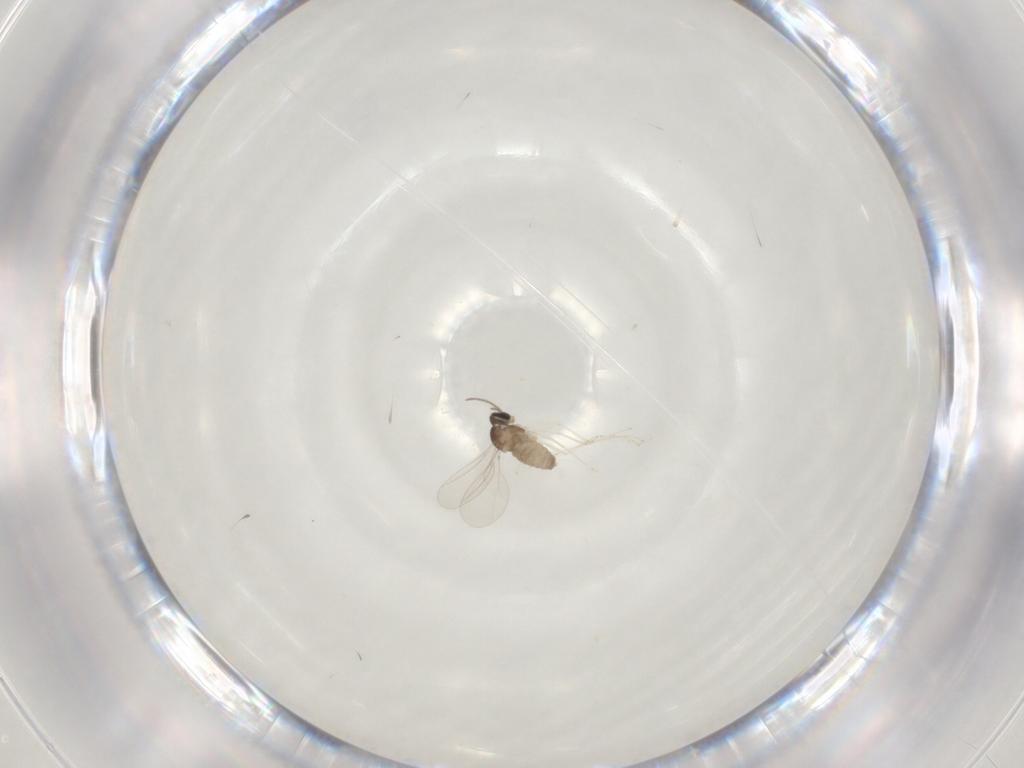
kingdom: Animalia
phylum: Arthropoda
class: Insecta
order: Diptera
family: Cecidomyiidae
